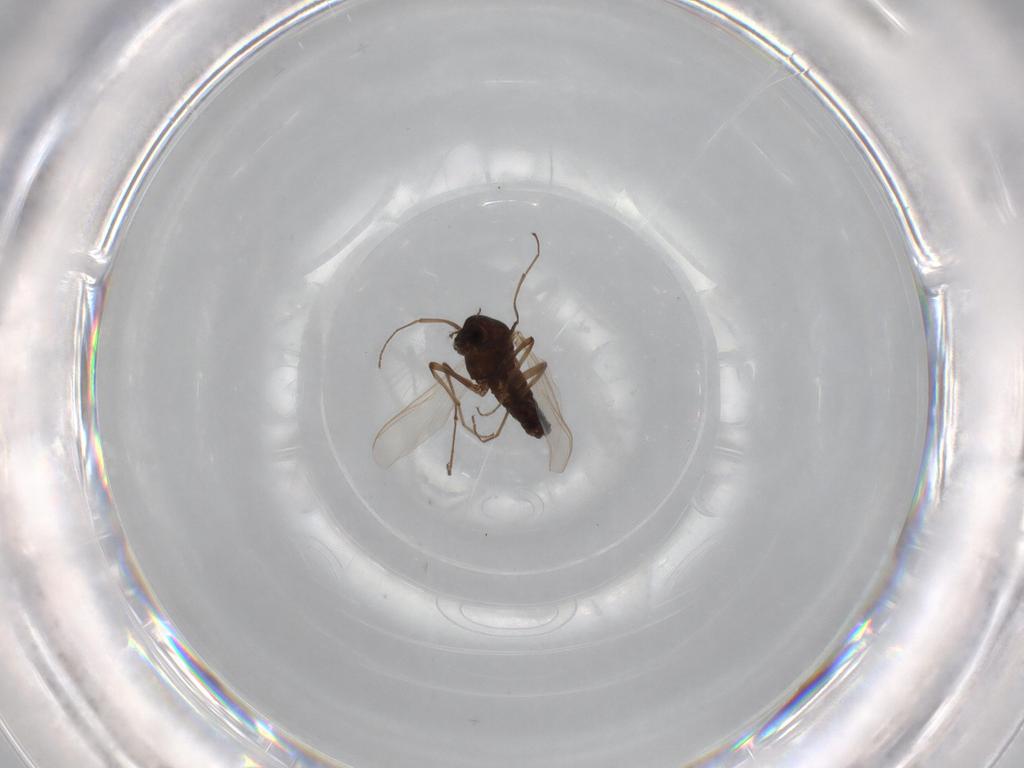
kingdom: Animalia
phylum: Arthropoda
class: Insecta
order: Diptera
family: Chironomidae
